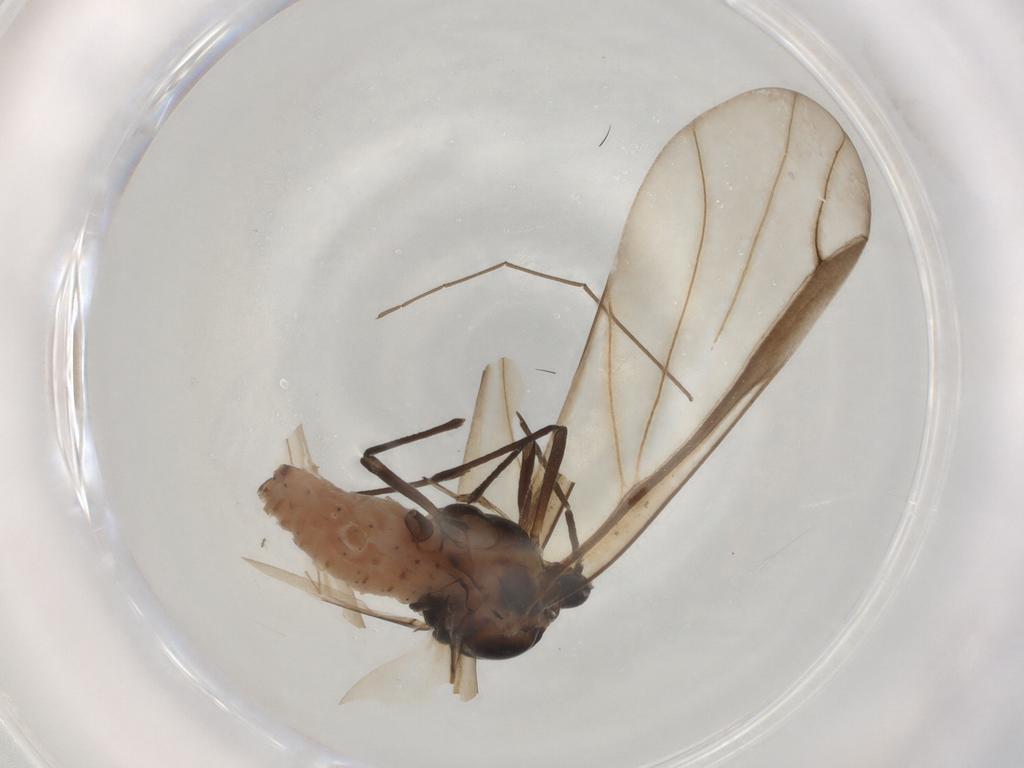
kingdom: Animalia
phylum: Arthropoda
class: Insecta
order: Hemiptera
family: Aphididae
